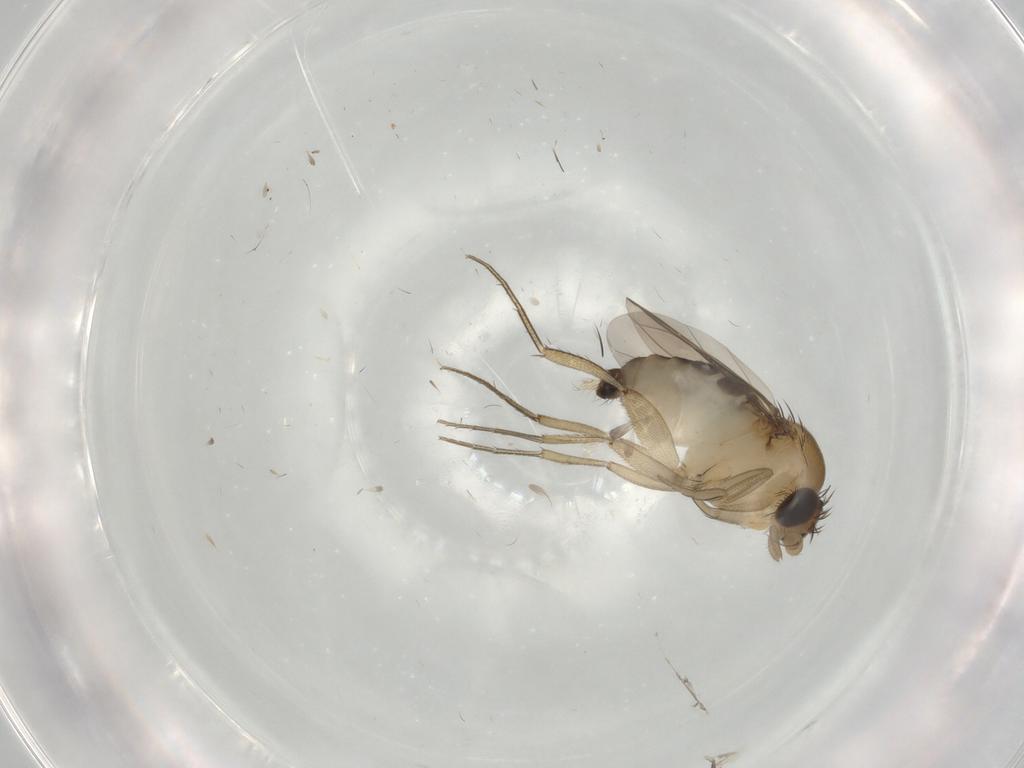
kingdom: Animalia
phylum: Arthropoda
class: Insecta
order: Diptera
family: Phoridae
